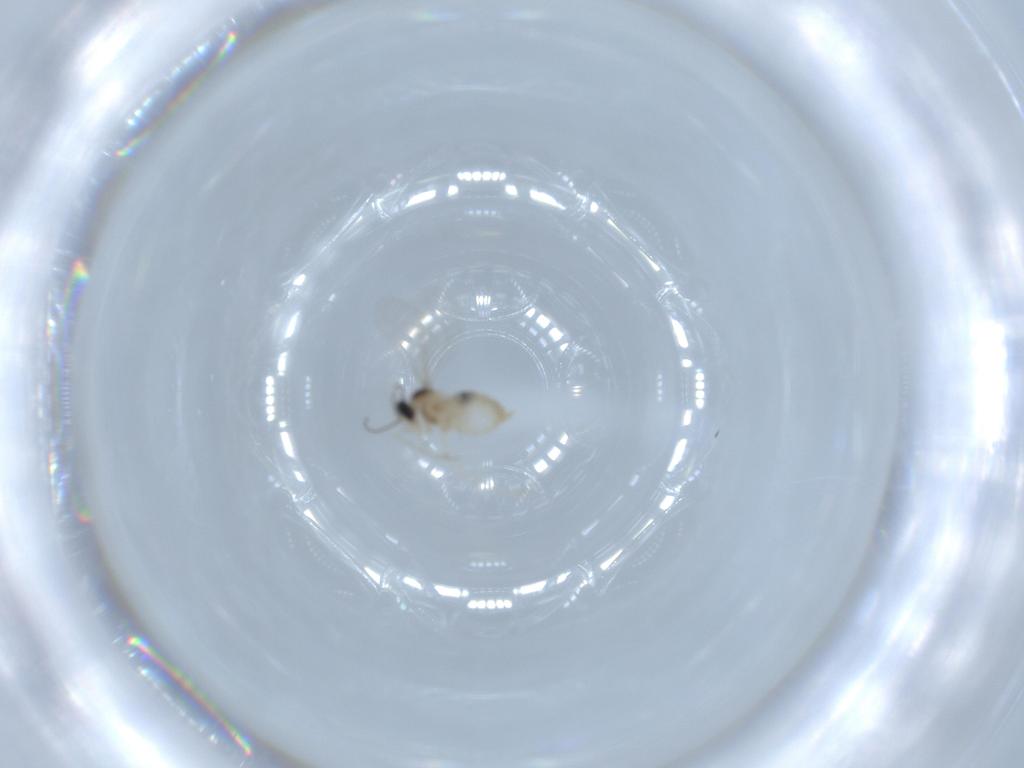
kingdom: Animalia
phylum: Arthropoda
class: Insecta
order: Diptera
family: Cecidomyiidae
